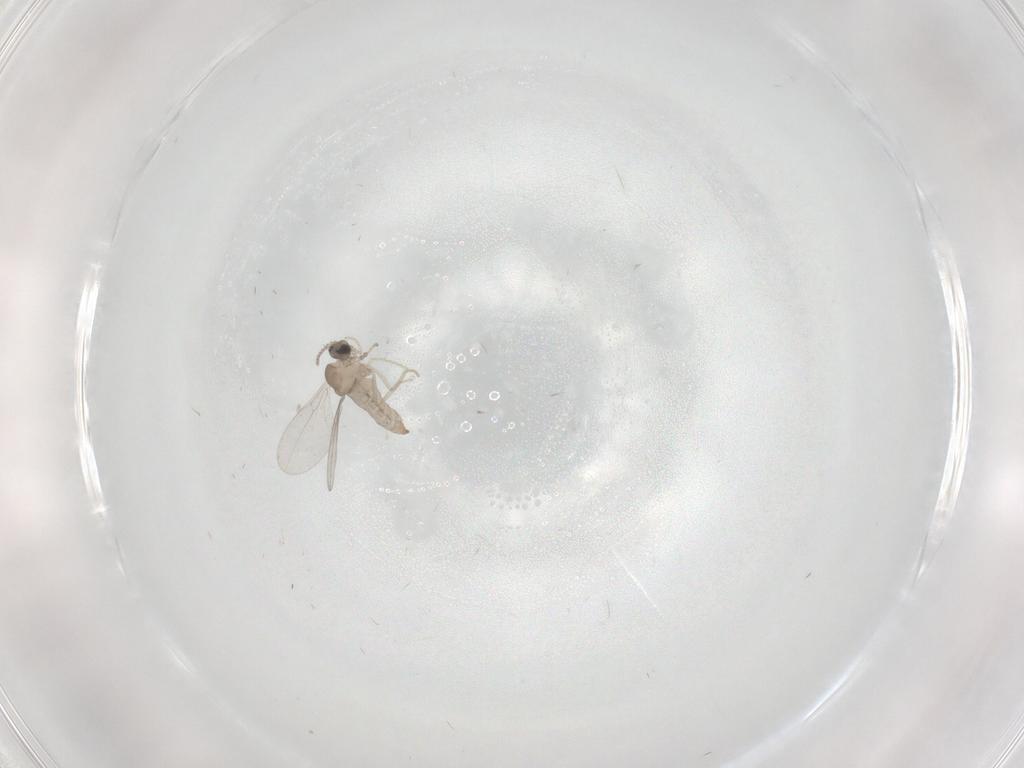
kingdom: Animalia
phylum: Arthropoda
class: Insecta
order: Diptera
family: Cecidomyiidae
